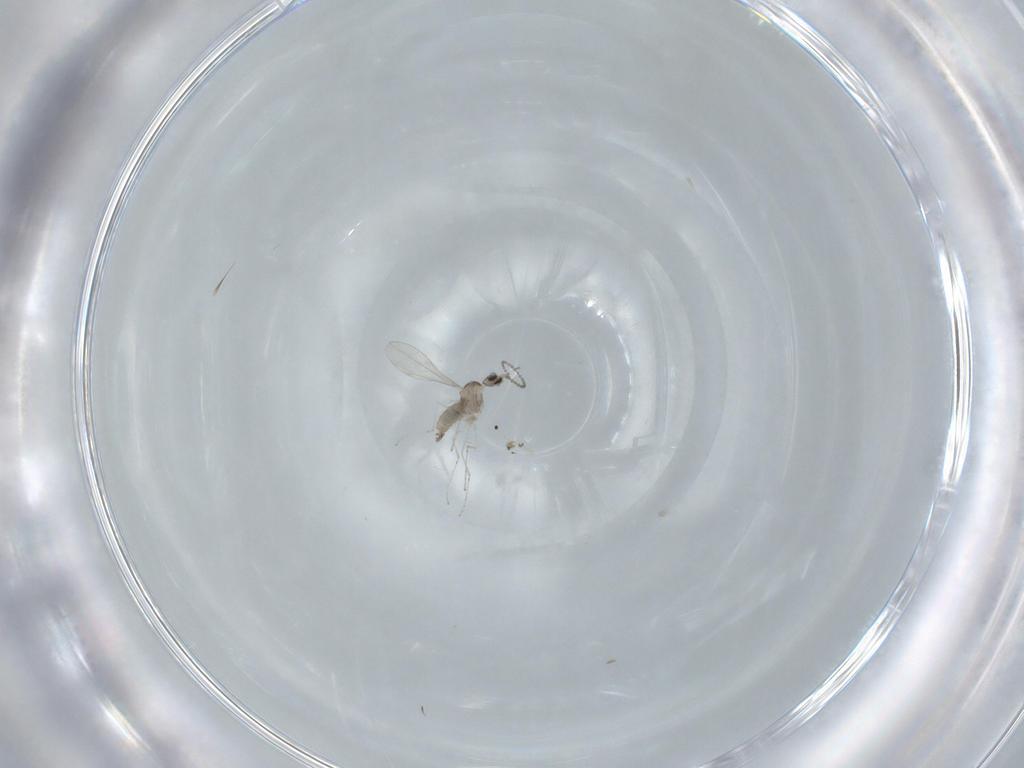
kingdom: Animalia
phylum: Arthropoda
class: Insecta
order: Diptera
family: Cecidomyiidae
